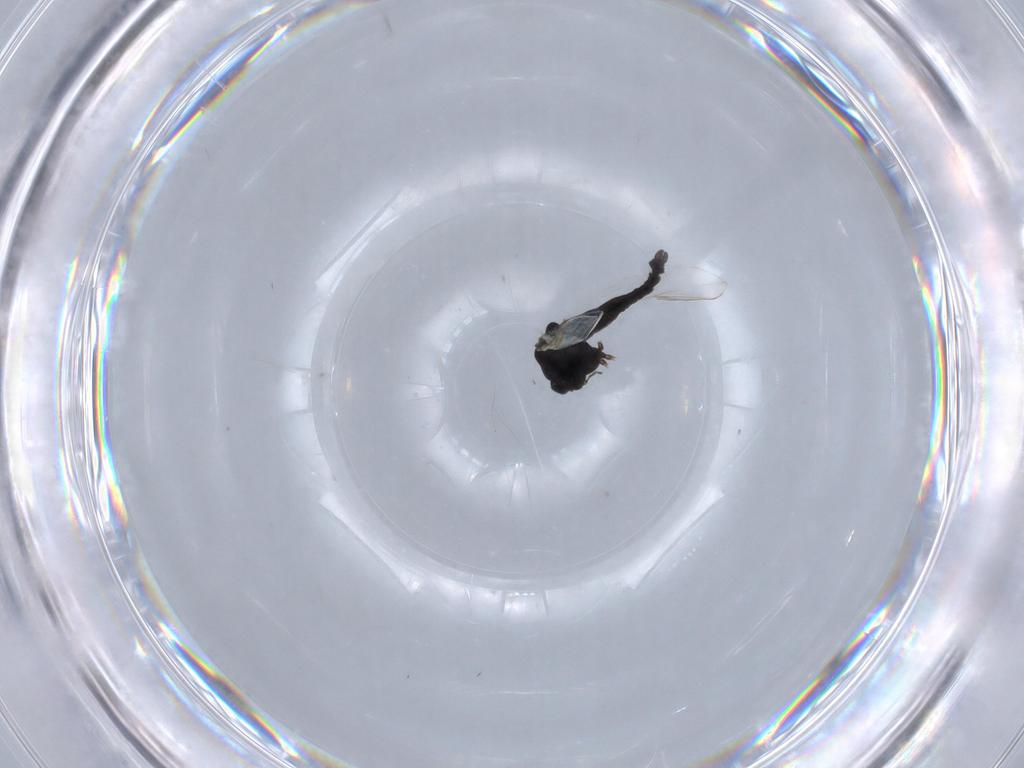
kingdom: Animalia
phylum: Arthropoda
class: Insecta
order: Diptera
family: Chironomidae
